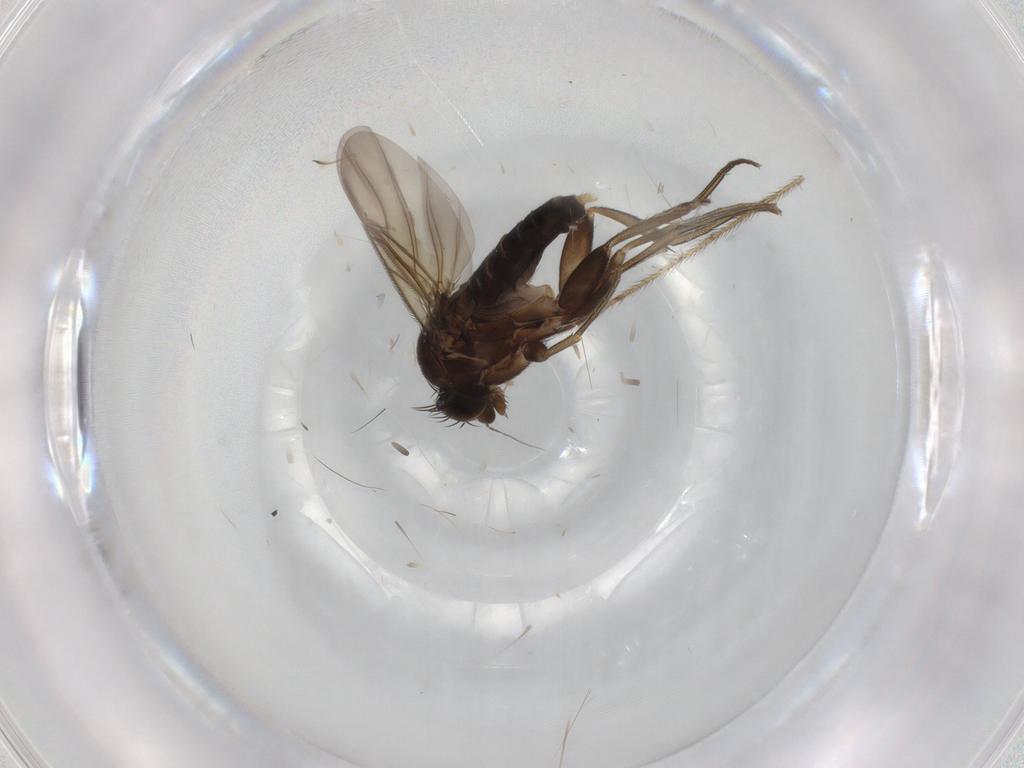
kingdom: Animalia
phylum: Arthropoda
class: Insecta
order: Diptera
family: Phoridae
